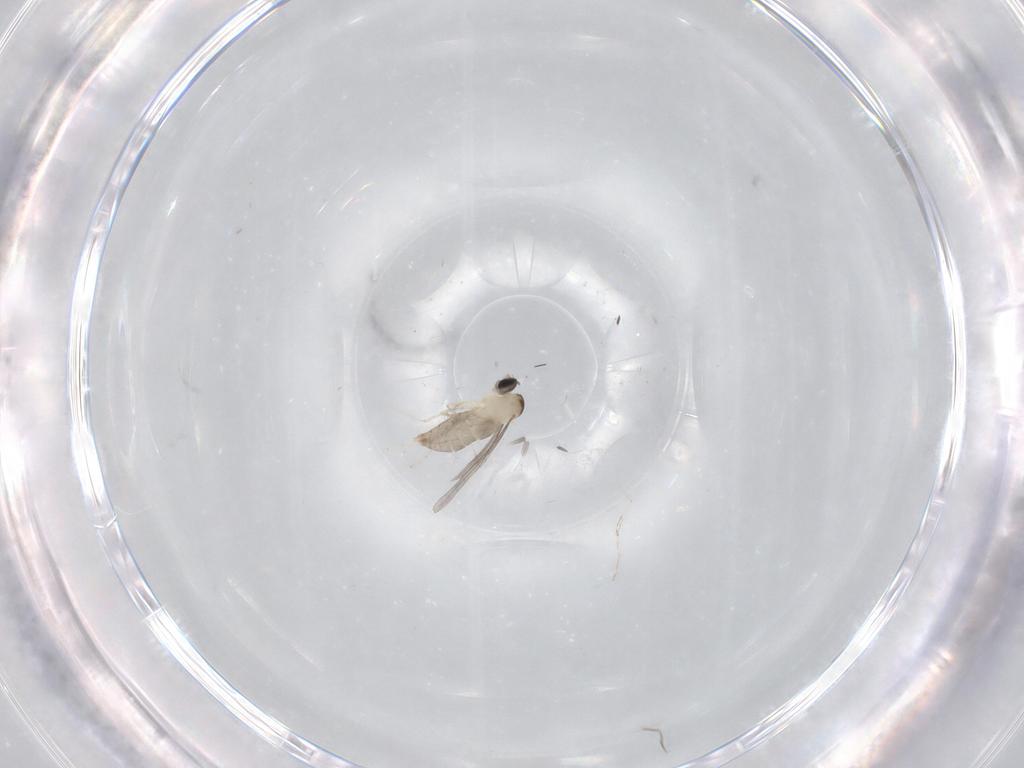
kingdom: Animalia
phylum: Arthropoda
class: Insecta
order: Diptera
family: Cecidomyiidae
